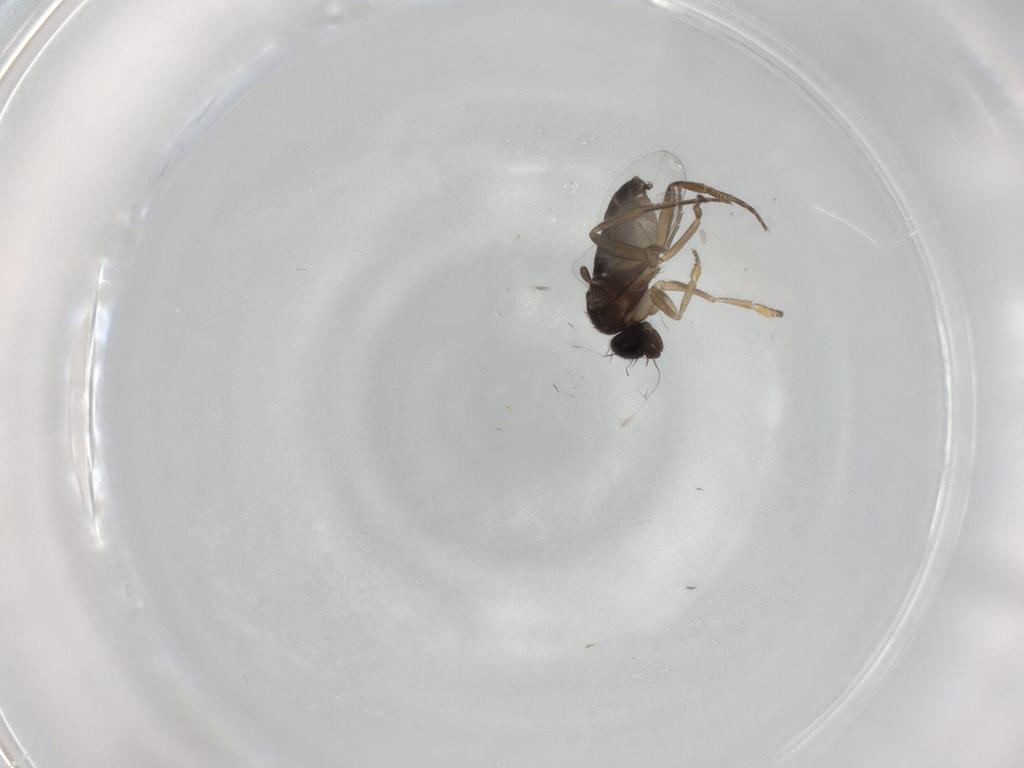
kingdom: Animalia
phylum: Arthropoda
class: Insecta
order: Diptera
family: Phoridae
